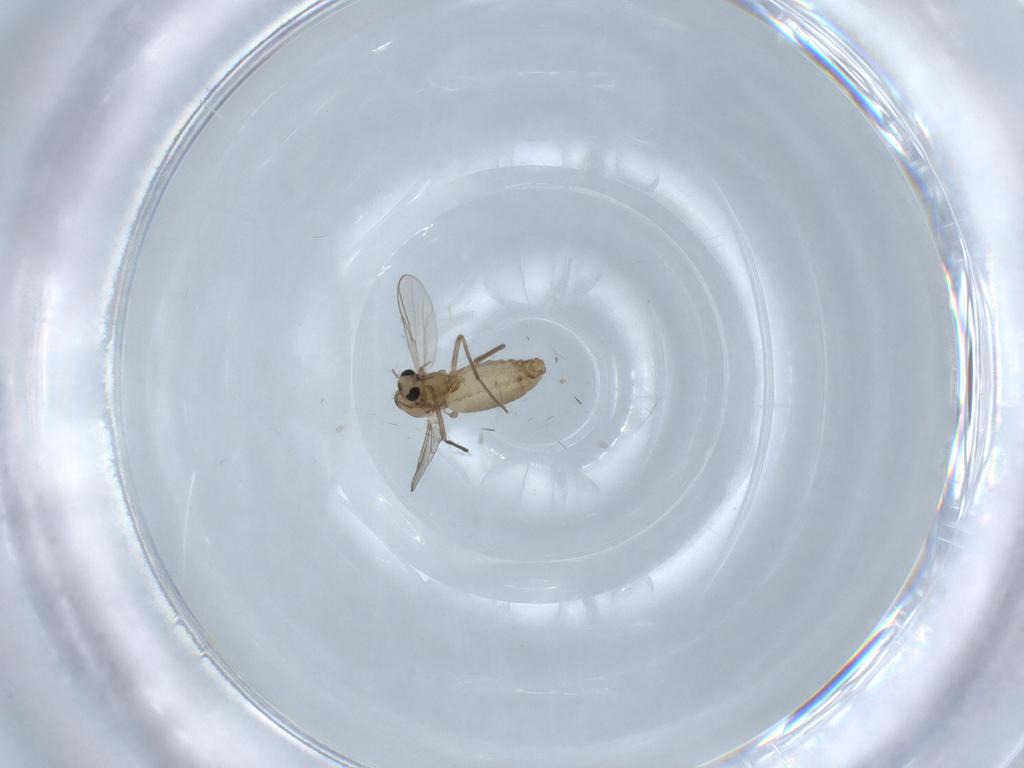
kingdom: Animalia
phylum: Arthropoda
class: Insecta
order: Diptera
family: Chironomidae
